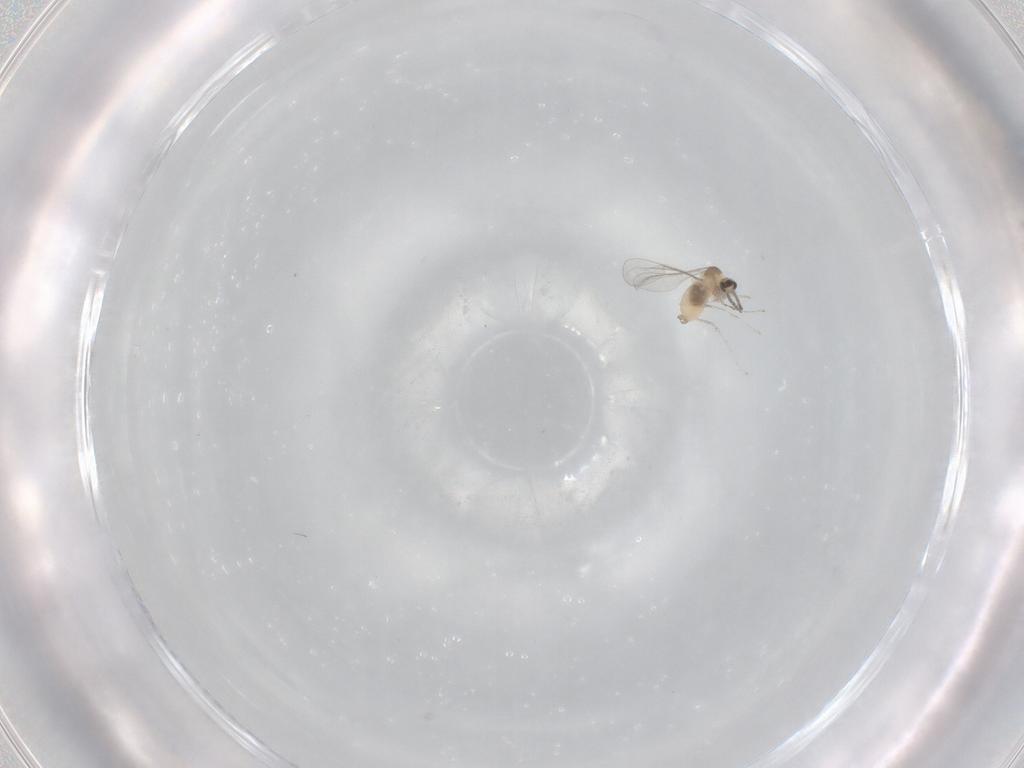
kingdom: Animalia
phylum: Arthropoda
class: Insecta
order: Diptera
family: Cecidomyiidae
